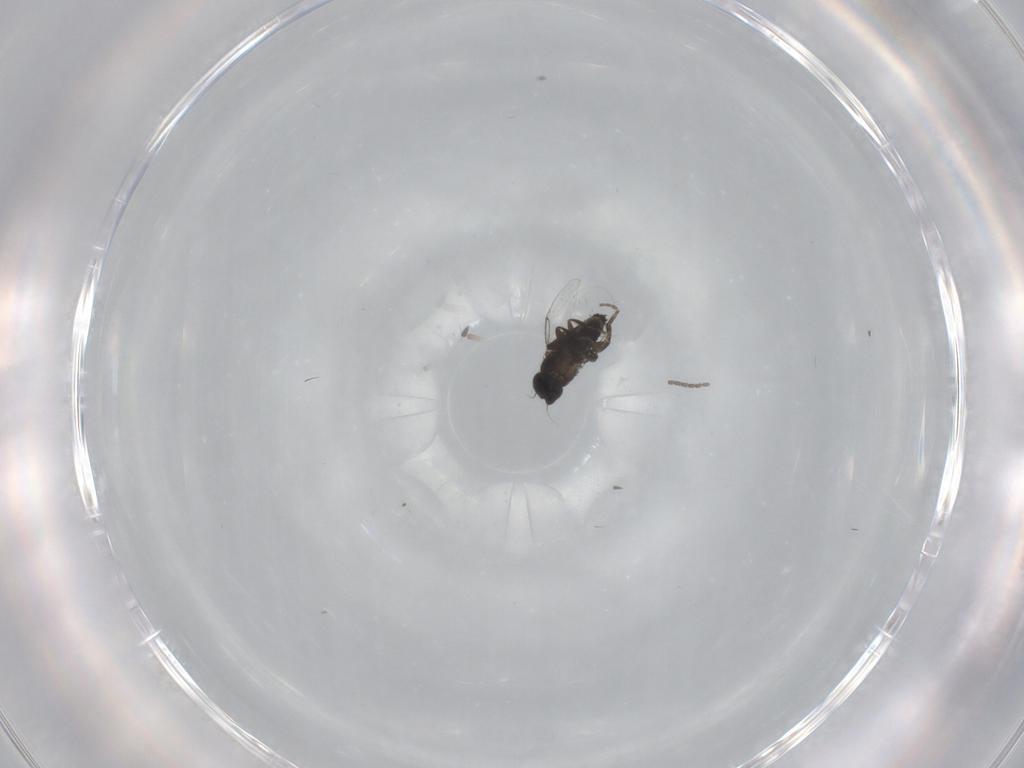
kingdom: Animalia
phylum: Arthropoda
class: Insecta
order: Diptera
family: Phoridae
